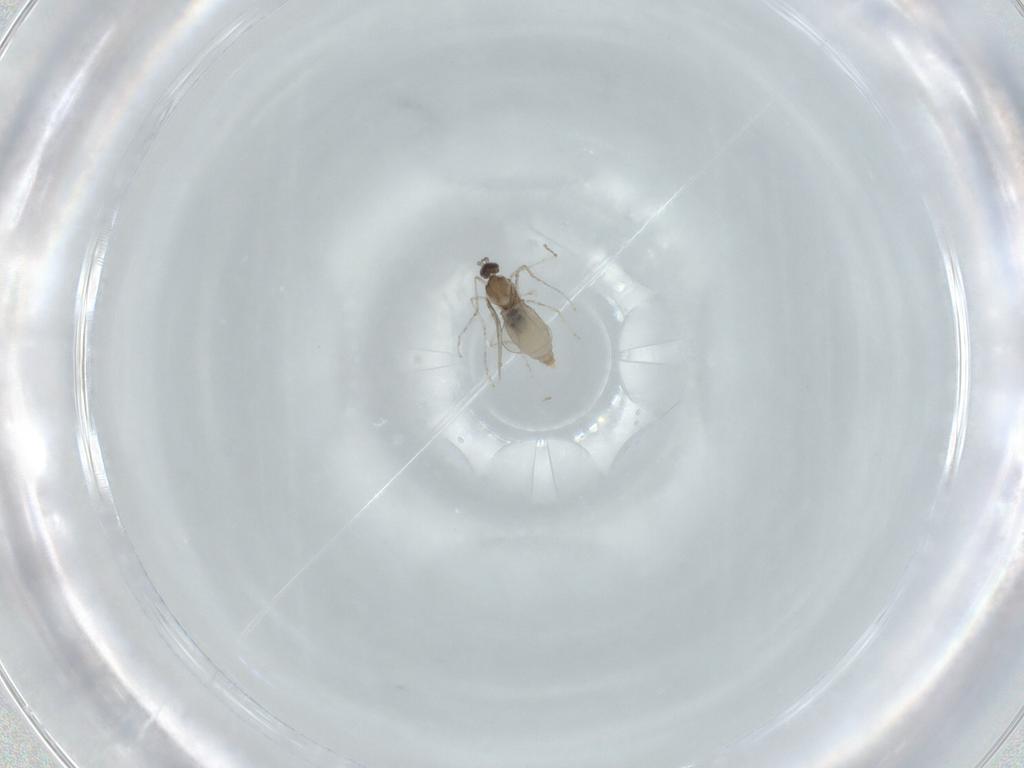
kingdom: Animalia
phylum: Arthropoda
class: Insecta
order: Diptera
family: Cecidomyiidae
